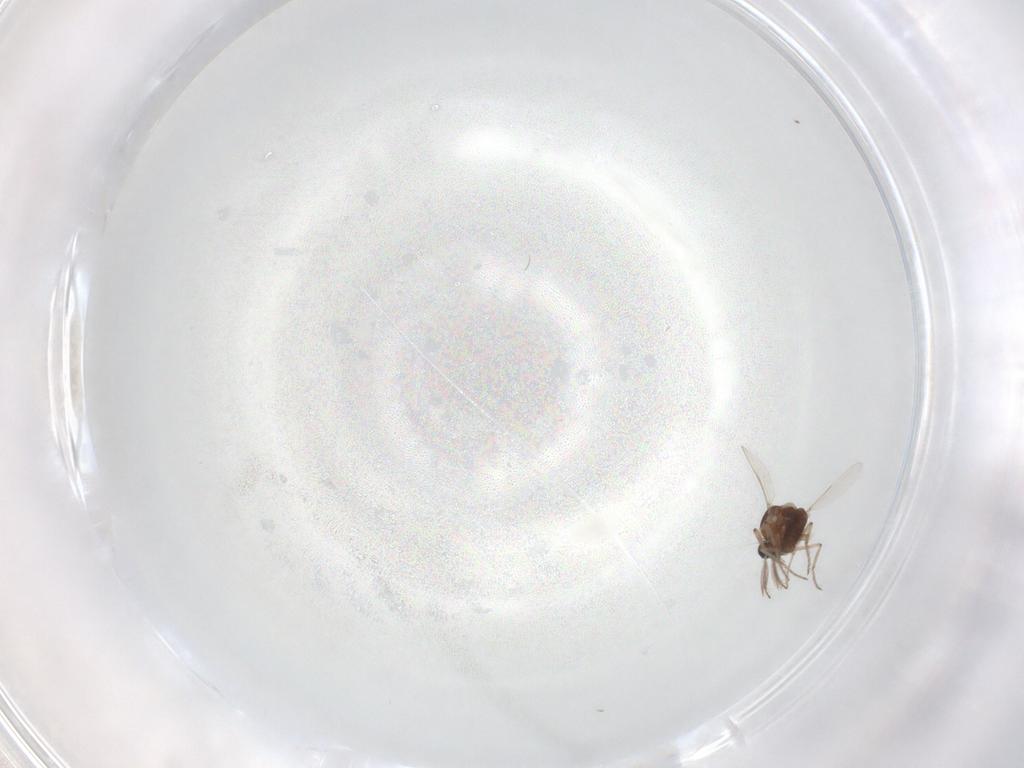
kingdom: Animalia
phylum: Arthropoda
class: Insecta
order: Diptera
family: Ceratopogonidae
